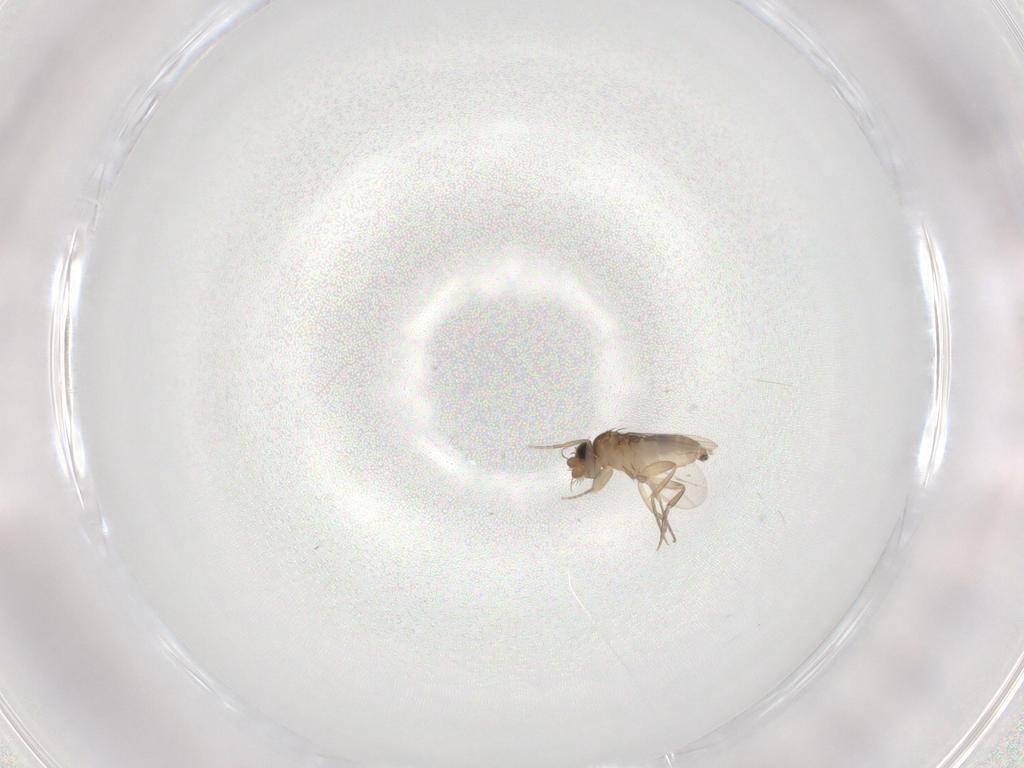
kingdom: Animalia
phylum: Arthropoda
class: Insecta
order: Diptera
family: Phoridae
